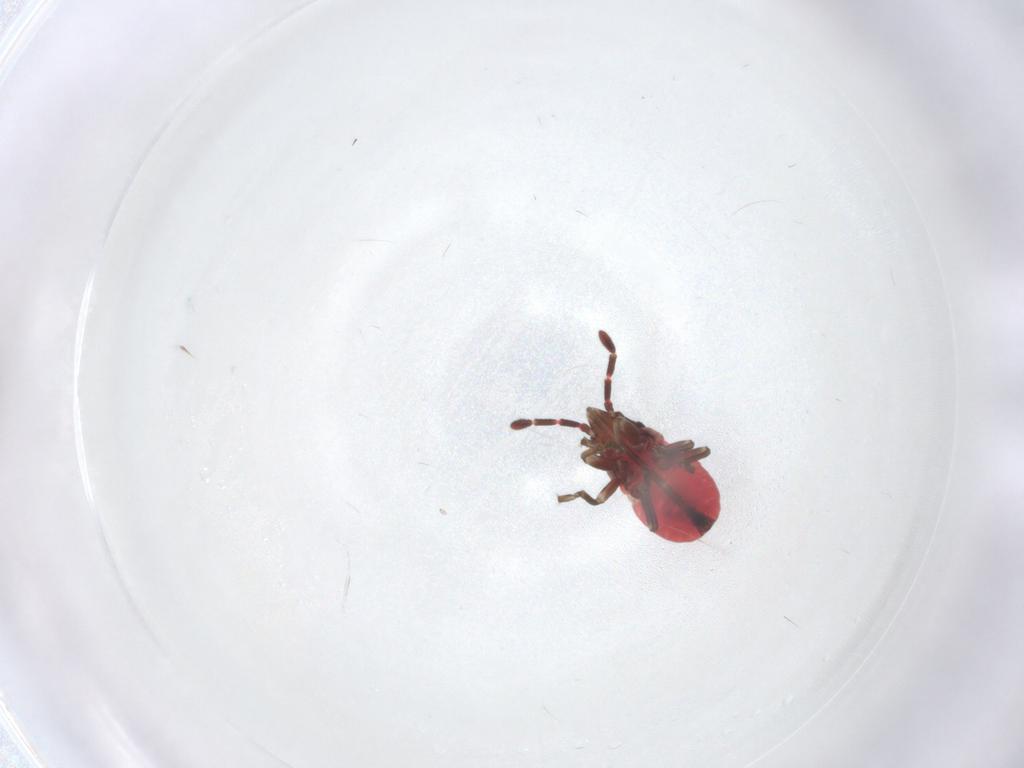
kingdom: Animalia
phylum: Arthropoda
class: Insecta
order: Hemiptera
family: Rhyparochromidae
